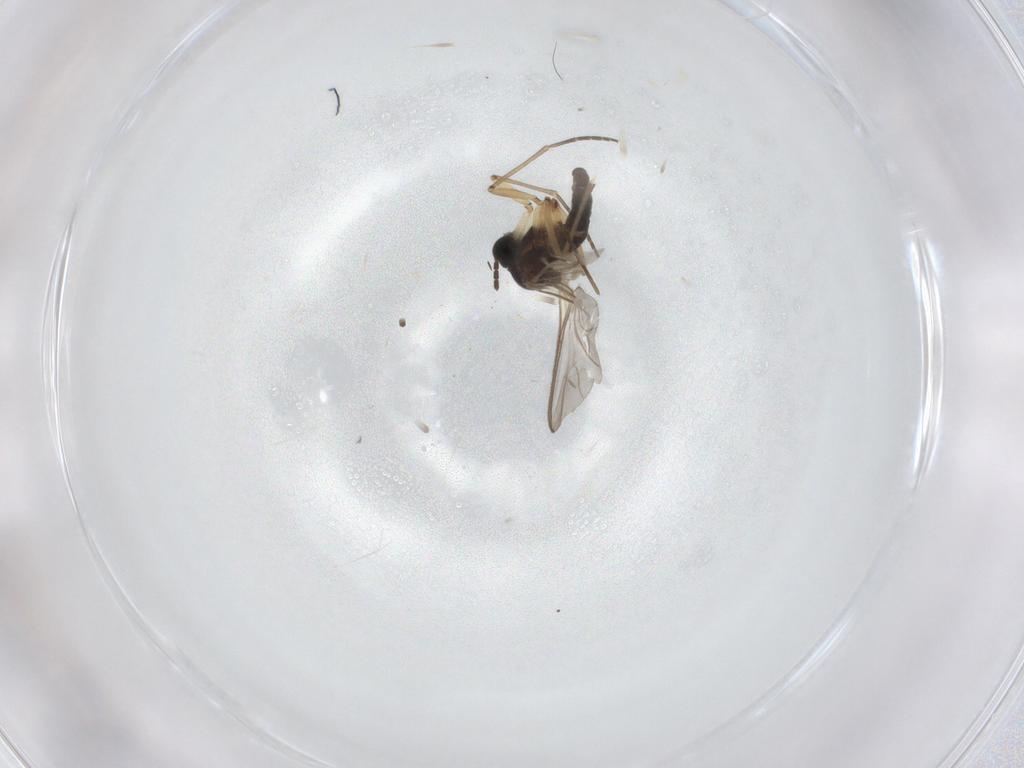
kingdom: Animalia
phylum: Arthropoda
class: Insecta
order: Diptera
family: Sciaridae
